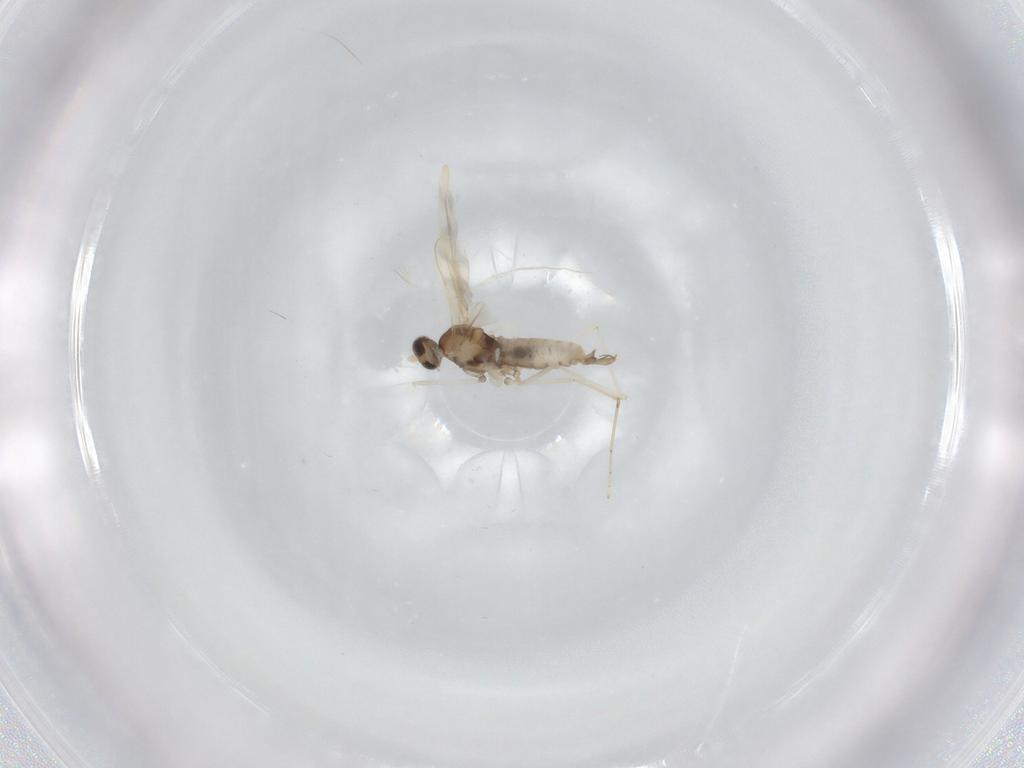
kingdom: Animalia
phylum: Arthropoda
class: Insecta
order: Diptera
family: Cecidomyiidae
